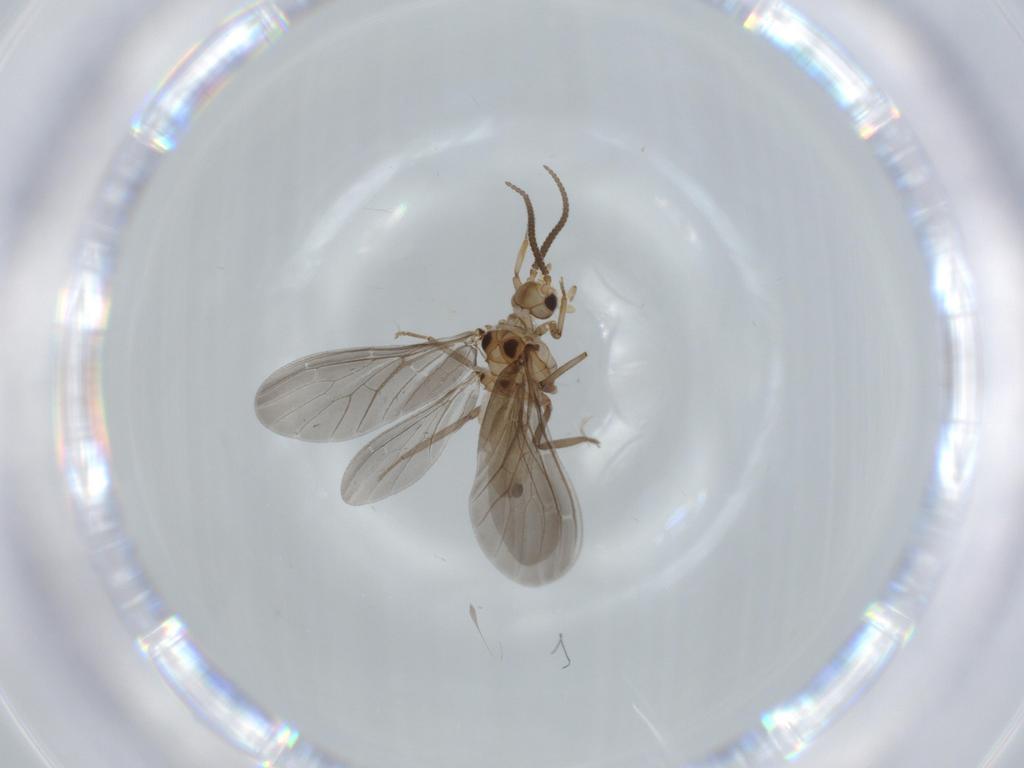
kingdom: Animalia
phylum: Arthropoda
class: Insecta
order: Neuroptera
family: Coniopterygidae
